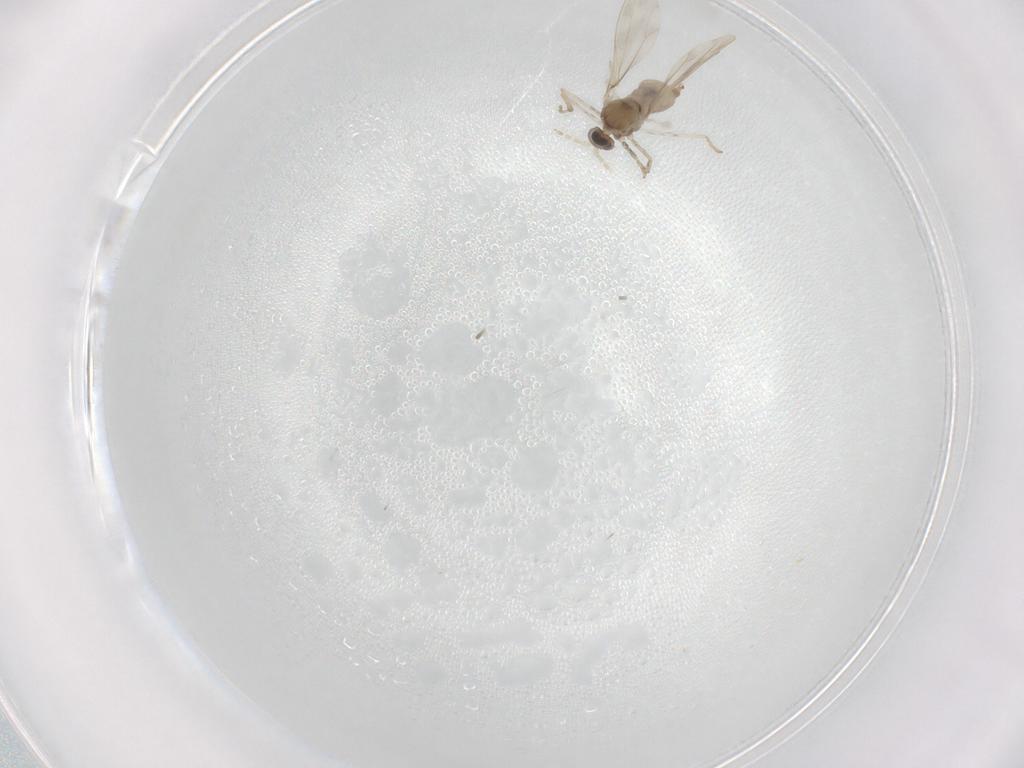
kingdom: Animalia
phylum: Arthropoda
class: Insecta
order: Diptera
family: Cecidomyiidae
